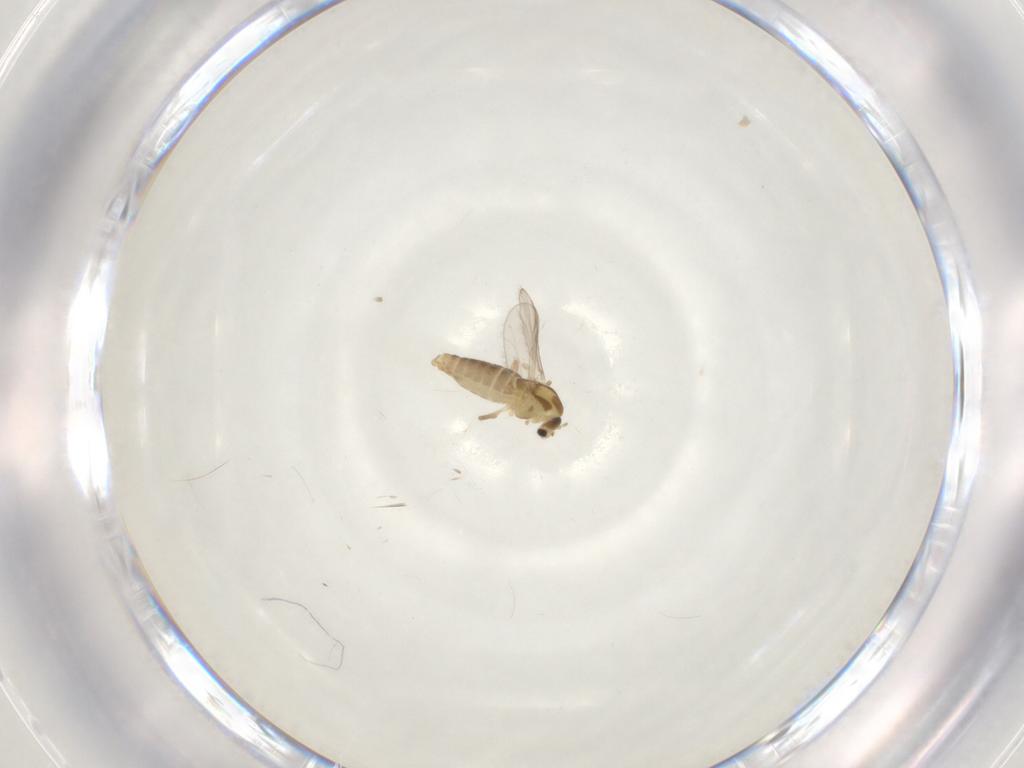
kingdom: Animalia
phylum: Arthropoda
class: Insecta
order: Diptera
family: Chironomidae
